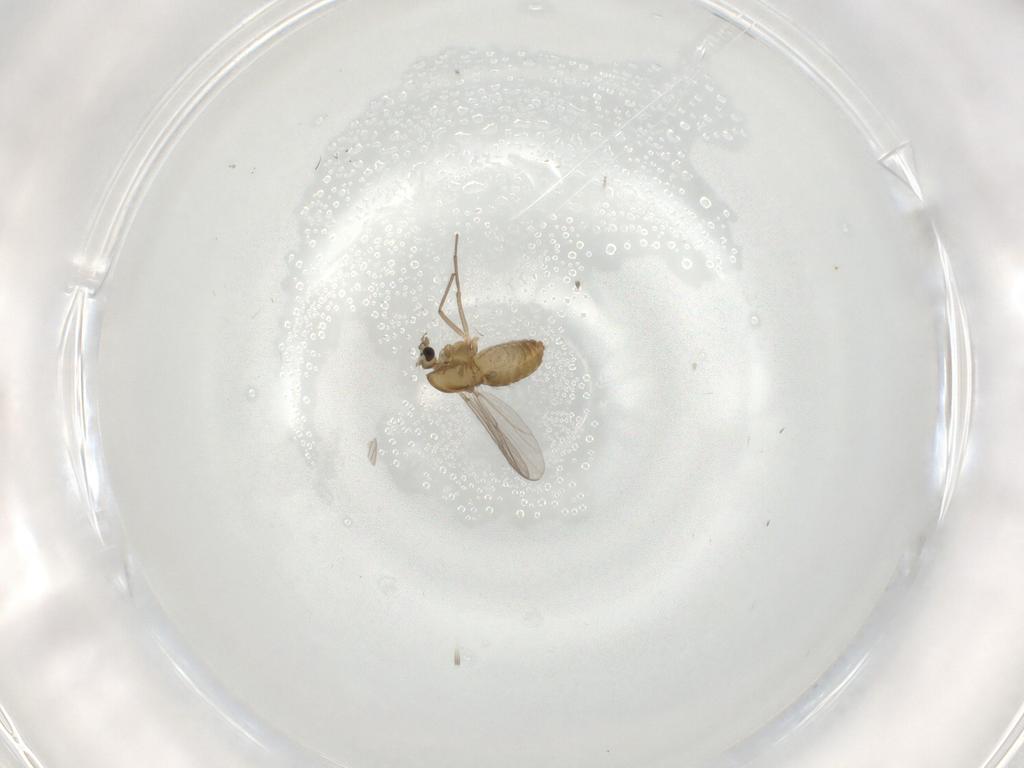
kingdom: Animalia
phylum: Arthropoda
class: Insecta
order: Diptera
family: Chironomidae
